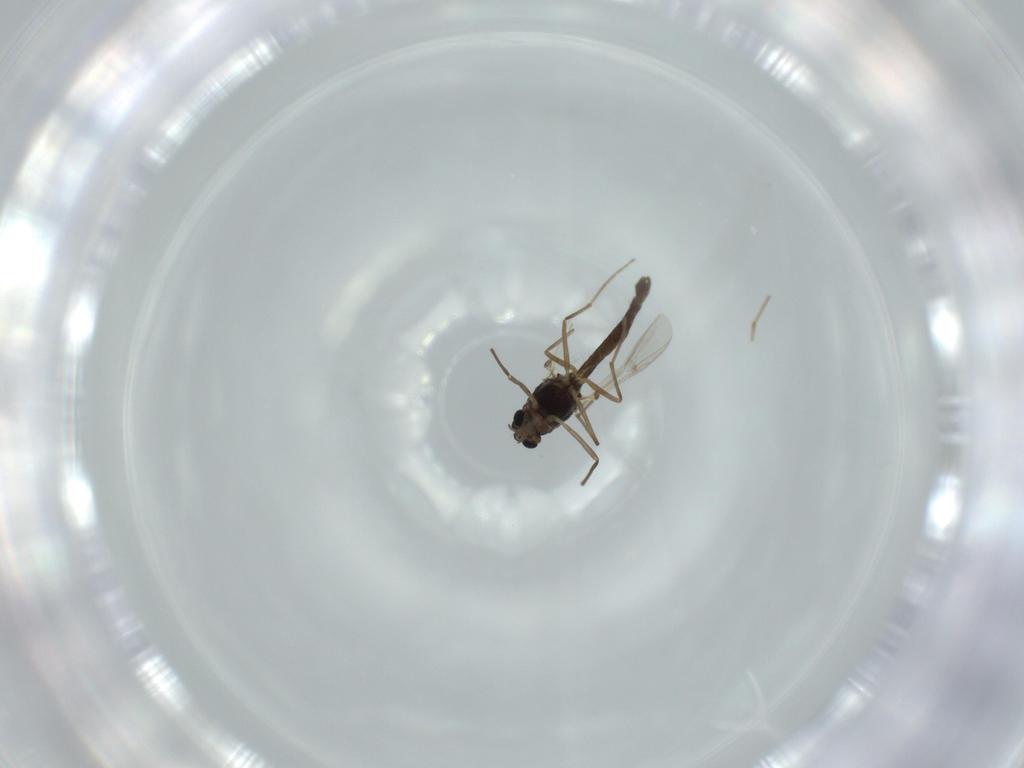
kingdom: Animalia
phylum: Arthropoda
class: Insecta
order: Diptera
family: Chironomidae
